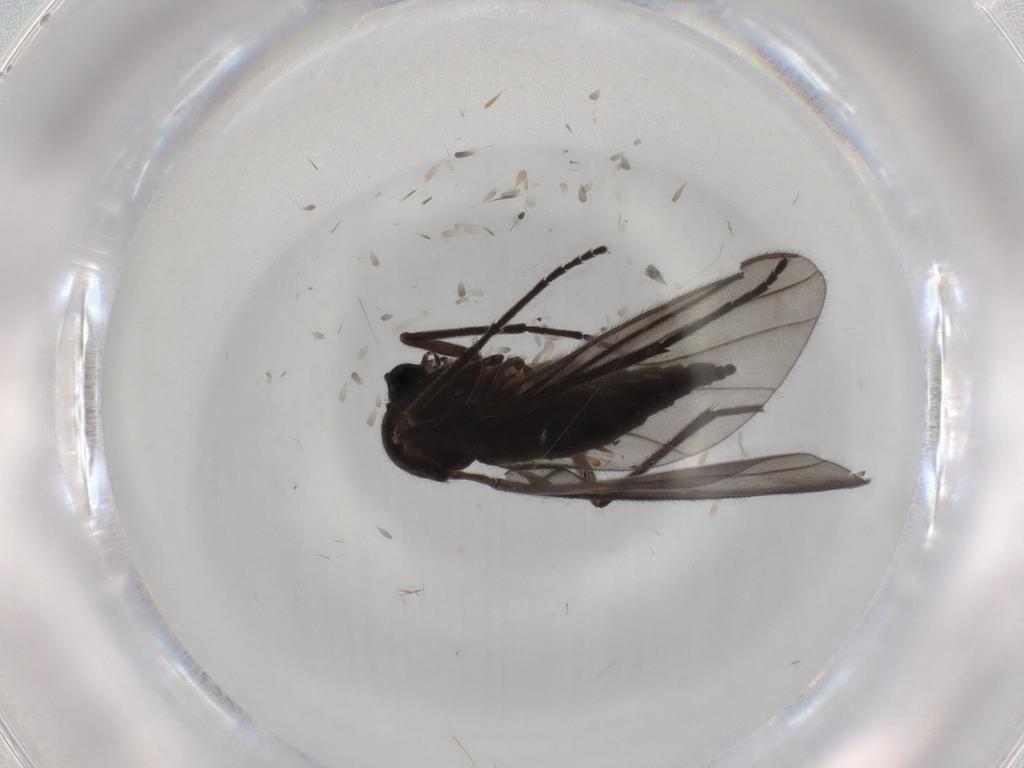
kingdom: Animalia
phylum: Arthropoda
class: Insecta
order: Diptera
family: Sciaridae
